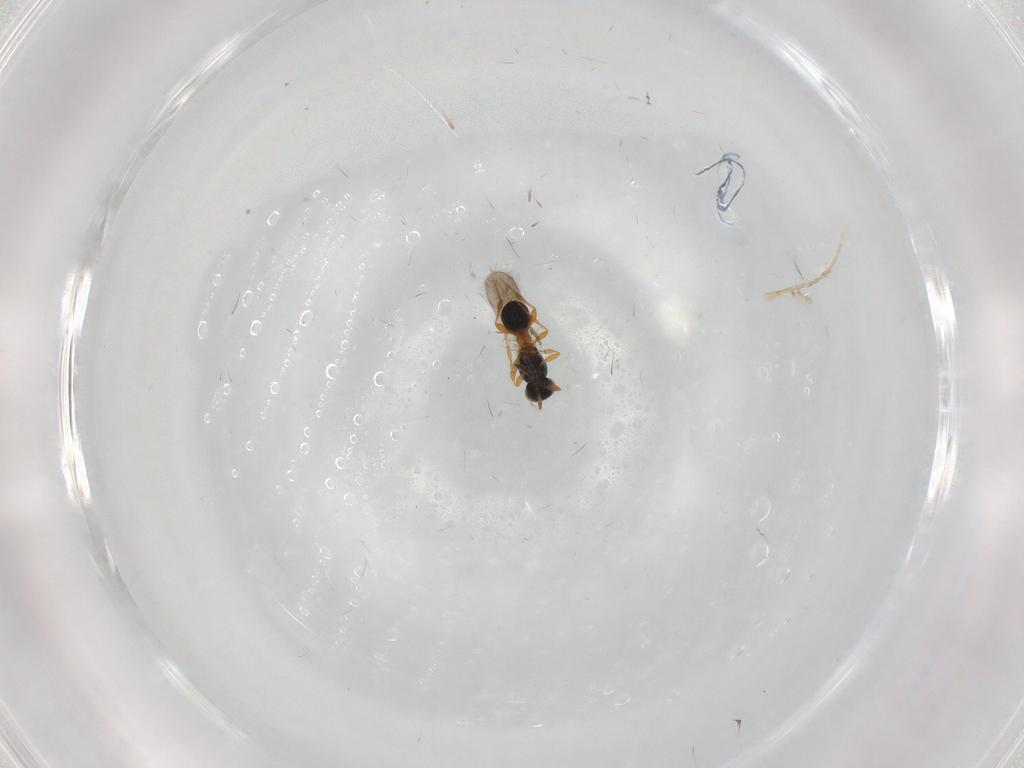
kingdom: Animalia
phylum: Arthropoda
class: Insecta
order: Hymenoptera
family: Platygastridae
